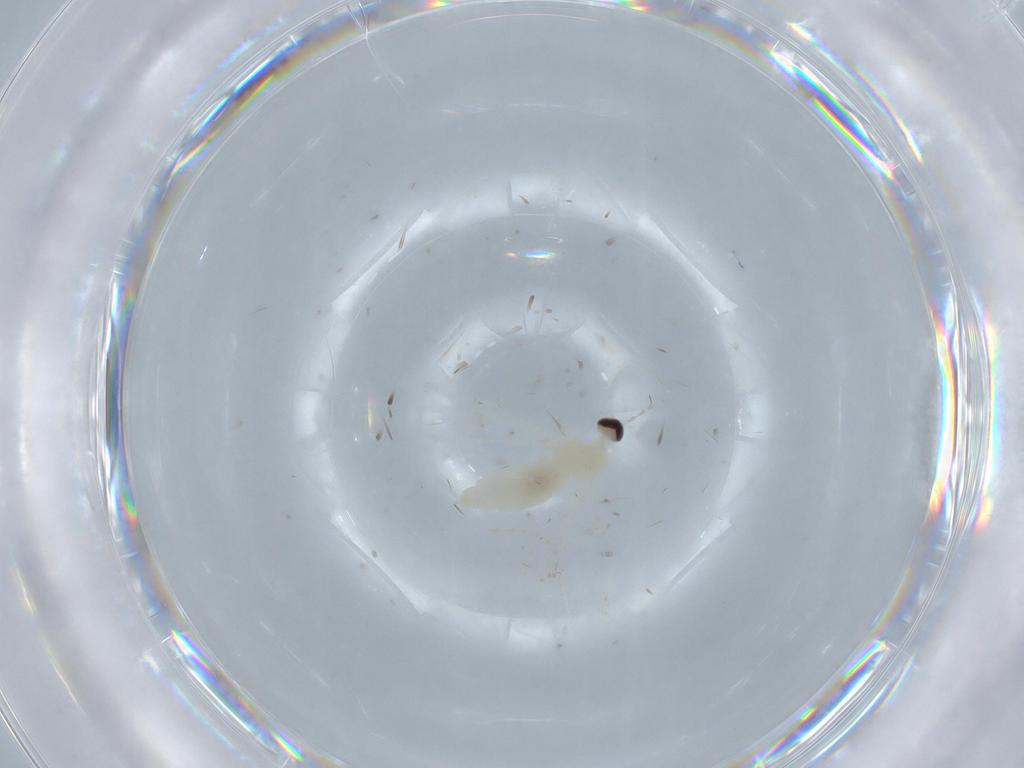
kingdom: Animalia
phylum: Arthropoda
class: Insecta
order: Diptera
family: Cecidomyiidae
